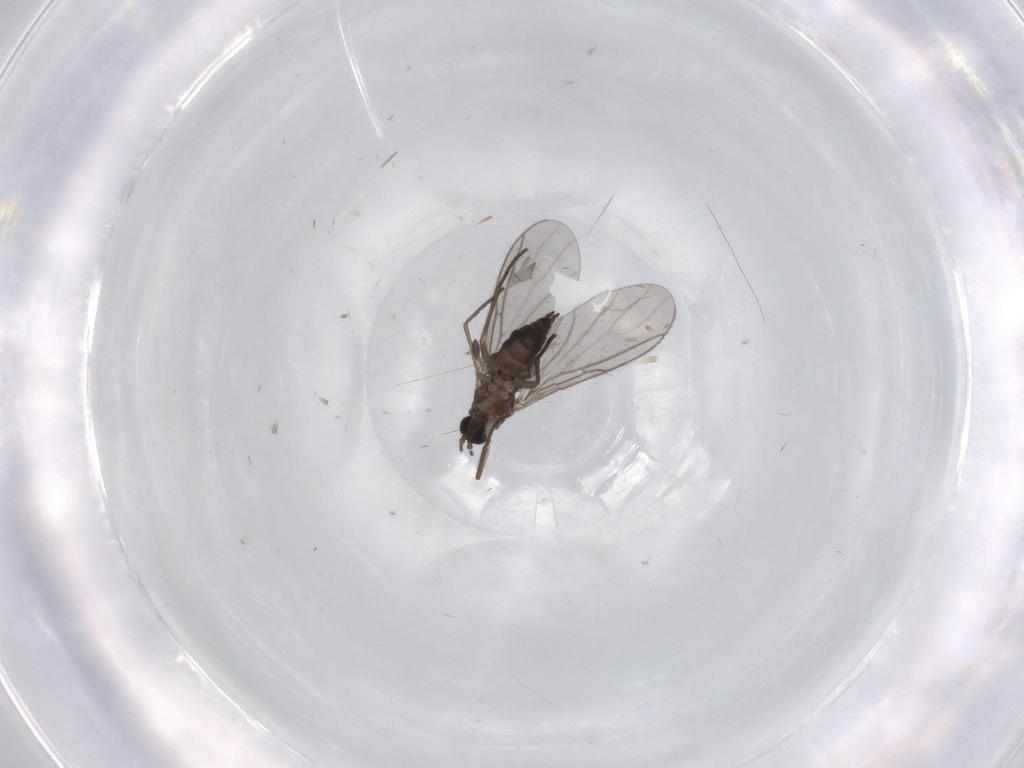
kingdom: Animalia
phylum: Arthropoda
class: Insecta
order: Diptera
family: Sciaridae
